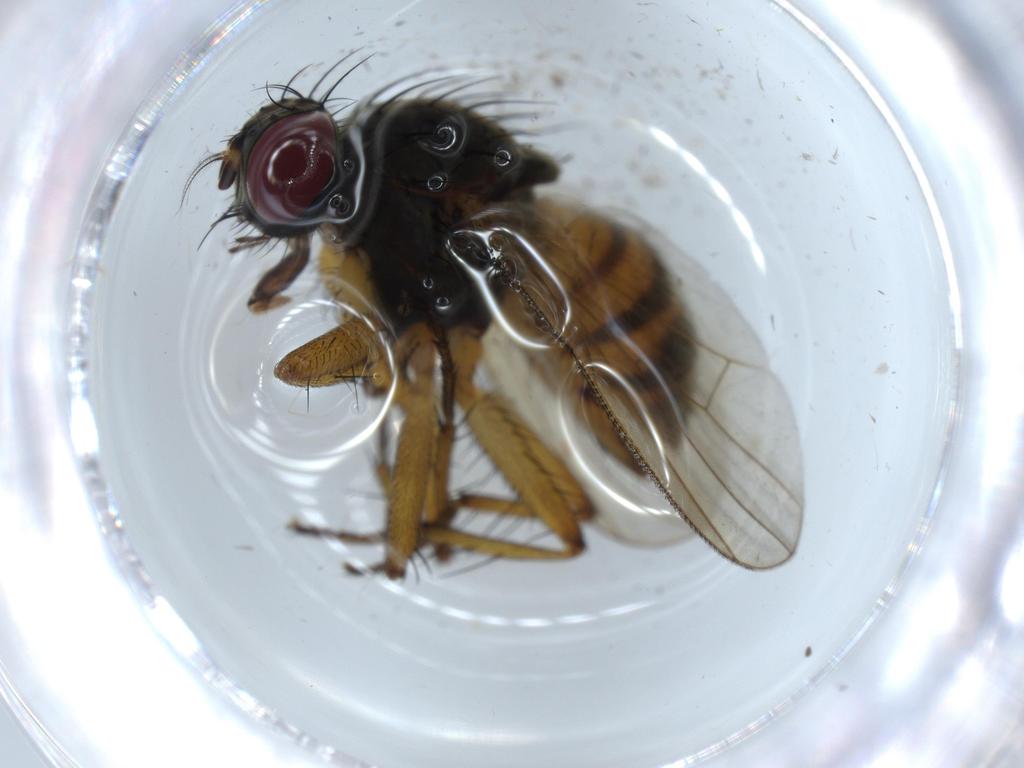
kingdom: Animalia
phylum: Arthropoda
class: Insecta
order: Diptera
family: Muscidae
